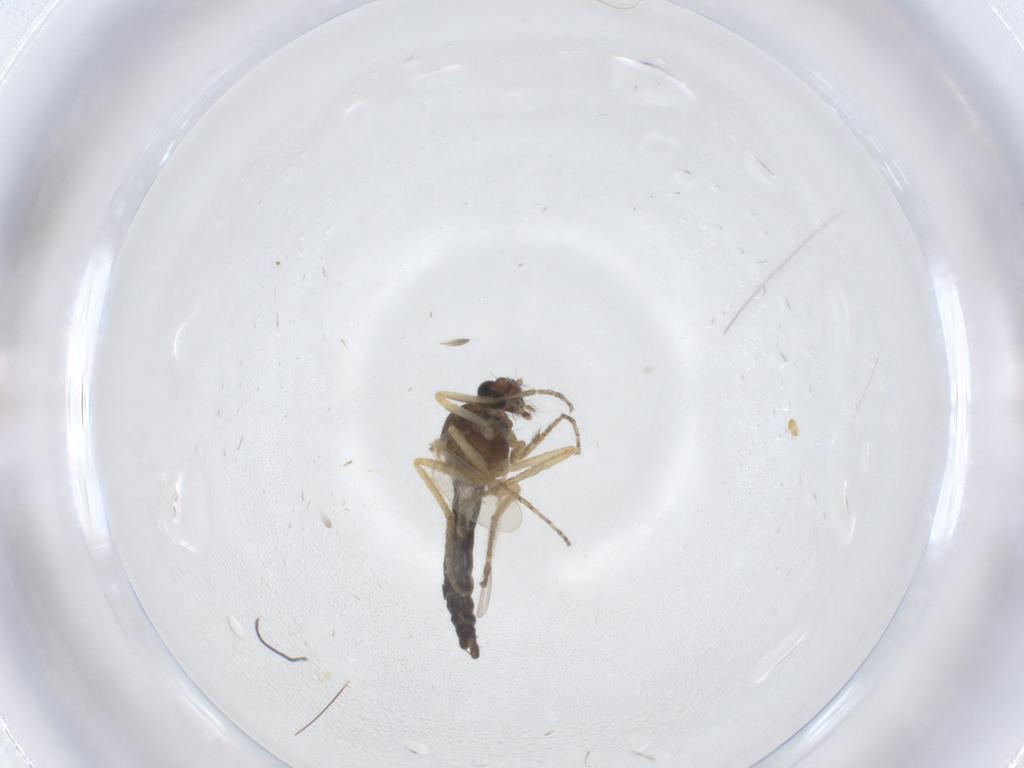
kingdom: Animalia
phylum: Arthropoda
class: Insecta
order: Diptera
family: Ceratopogonidae
